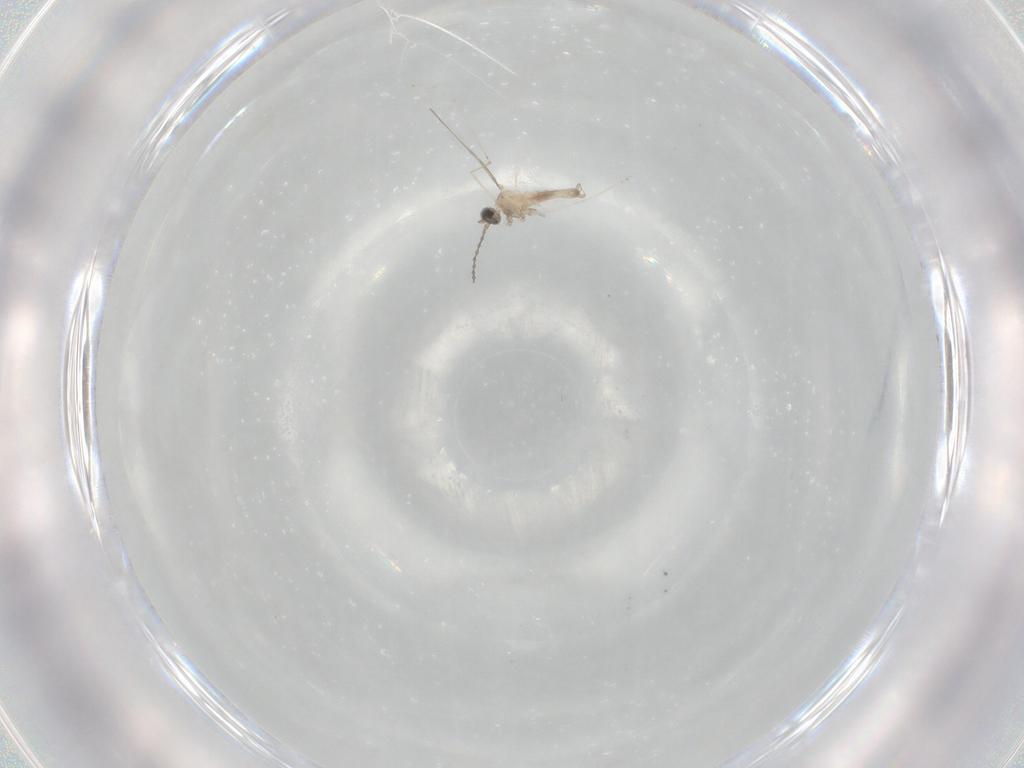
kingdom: Animalia
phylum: Arthropoda
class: Insecta
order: Diptera
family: Cecidomyiidae
